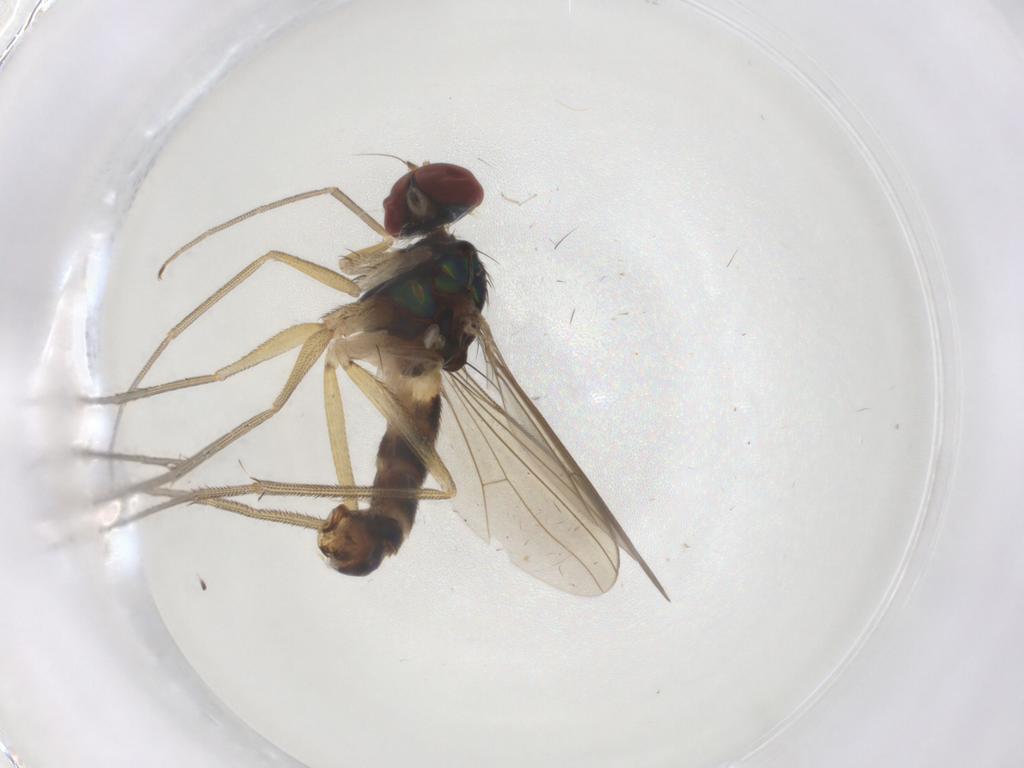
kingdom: Animalia
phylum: Arthropoda
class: Insecta
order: Diptera
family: Dolichopodidae
